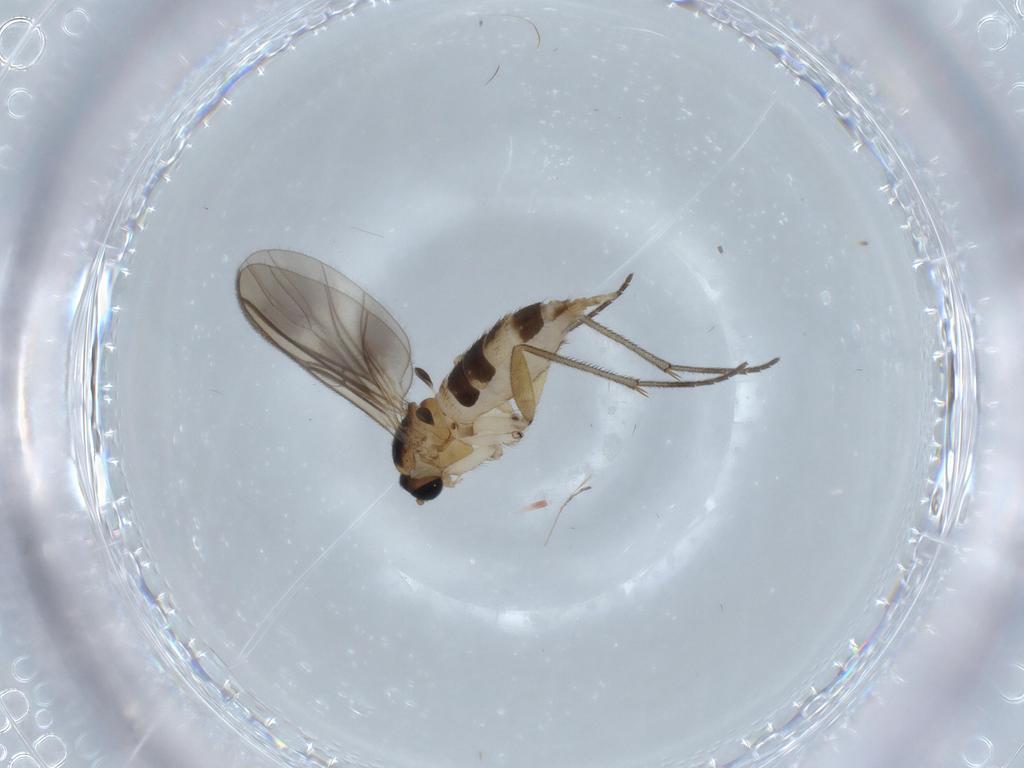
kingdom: Animalia
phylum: Arthropoda
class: Insecta
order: Diptera
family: Sciaridae
